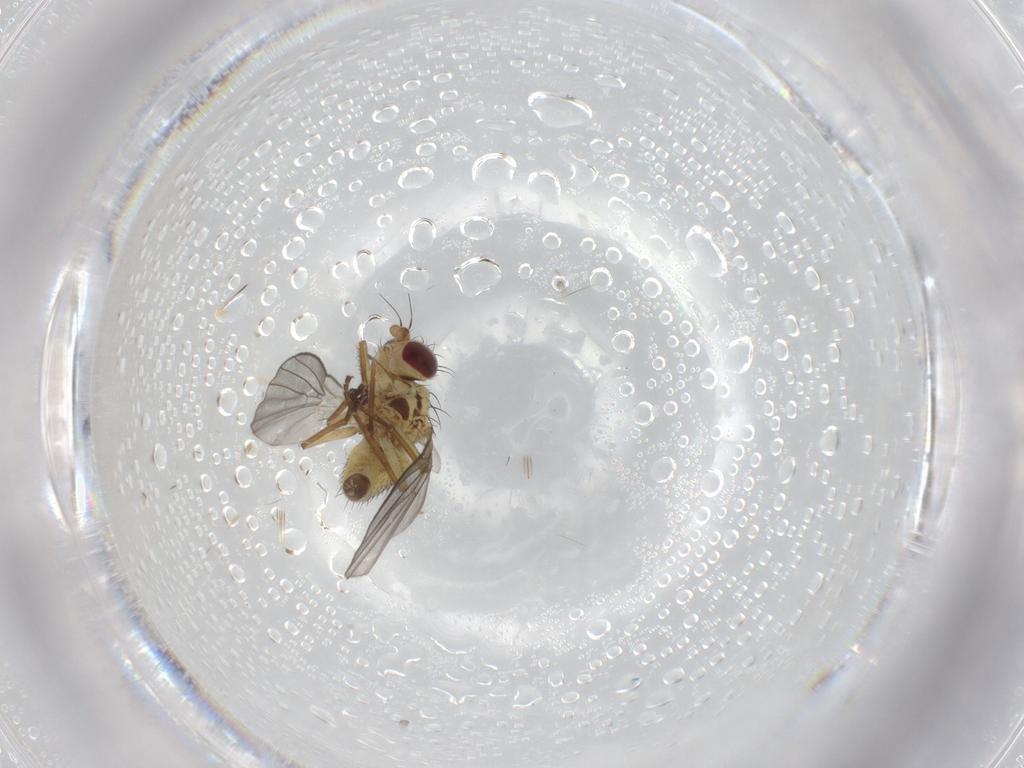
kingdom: Animalia
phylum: Arthropoda
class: Insecta
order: Diptera
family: Agromyzidae
